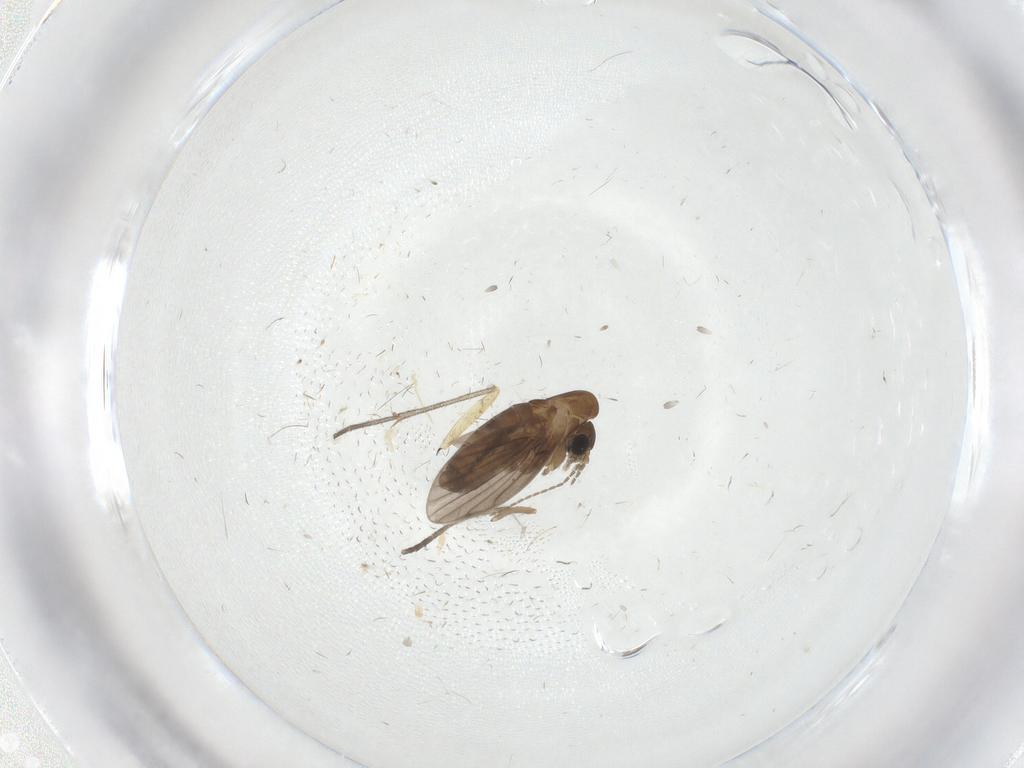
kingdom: Animalia
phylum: Arthropoda
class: Insecta
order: Diptera
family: Psychodidae
